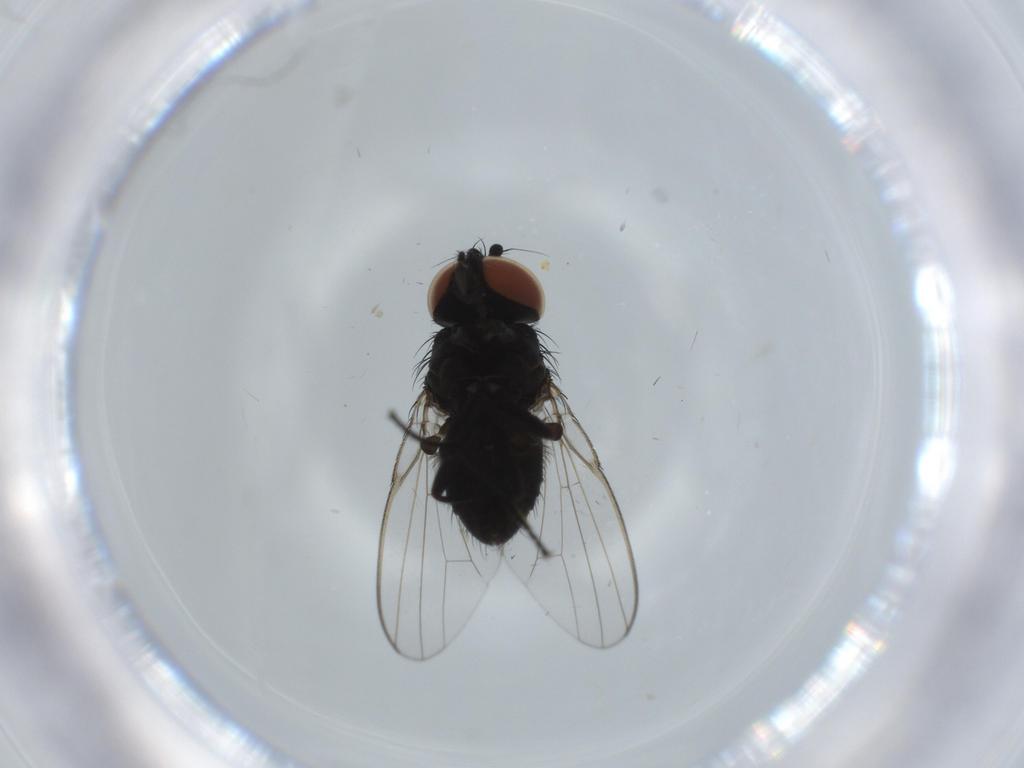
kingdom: Animalia
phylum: Arthropoda
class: Insecta
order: Diptera
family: Milichiidae
